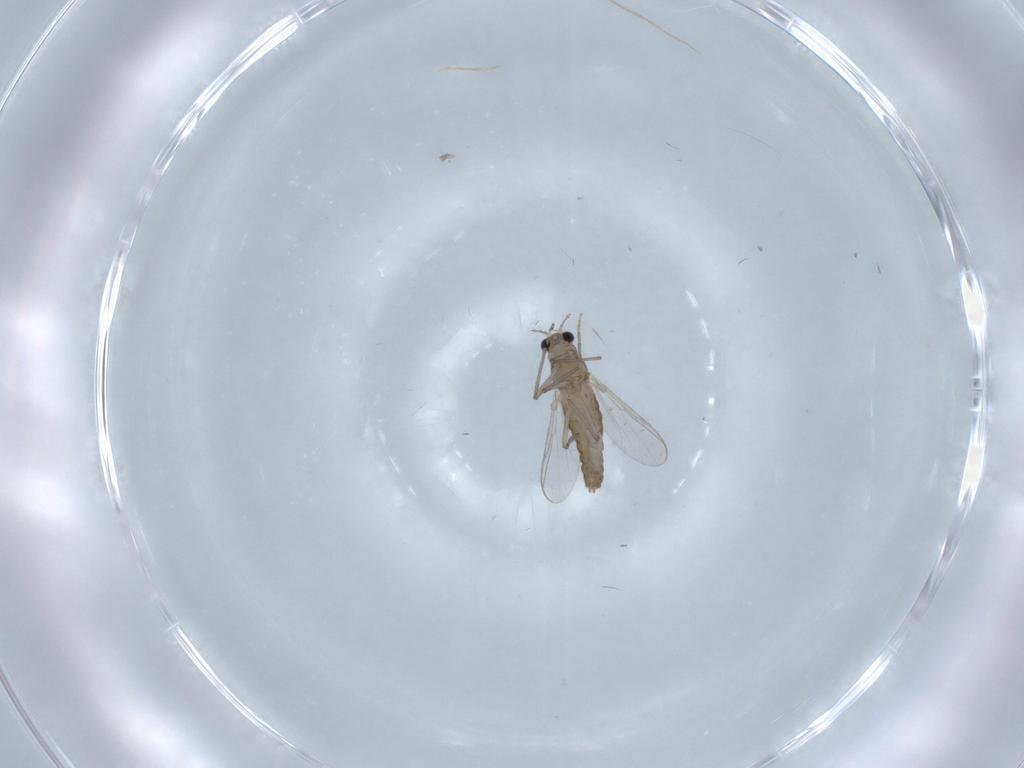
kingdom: Animalia
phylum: Arthropoda
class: Insecta
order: Diptera
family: Chironomidae
